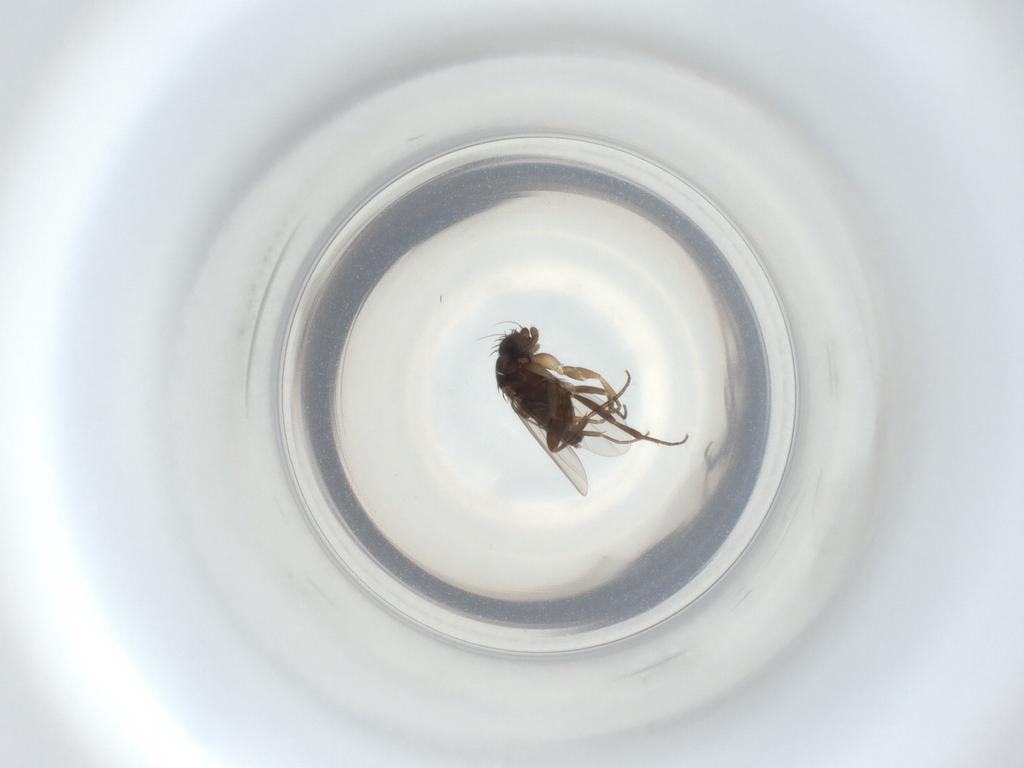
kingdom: Animalia
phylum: Arthropoda
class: Insecta
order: Diptera
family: Phoridae
